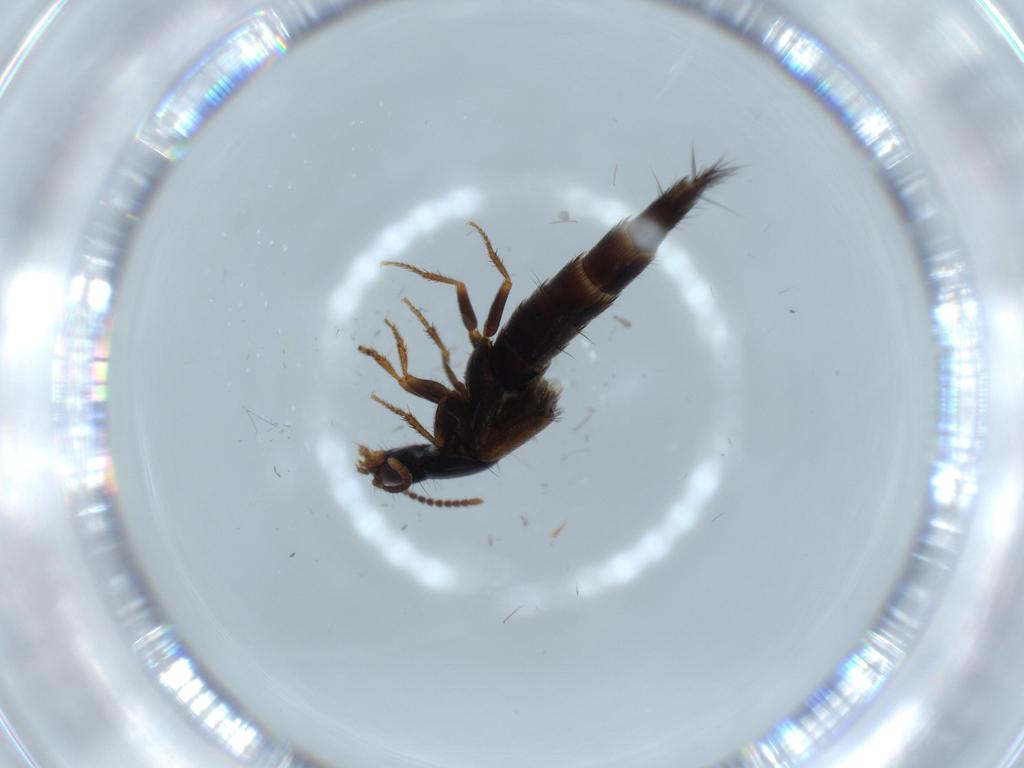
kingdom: Animalia
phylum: Arthropoda
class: Insecta
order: Coleoptera
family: Staphylinidae
